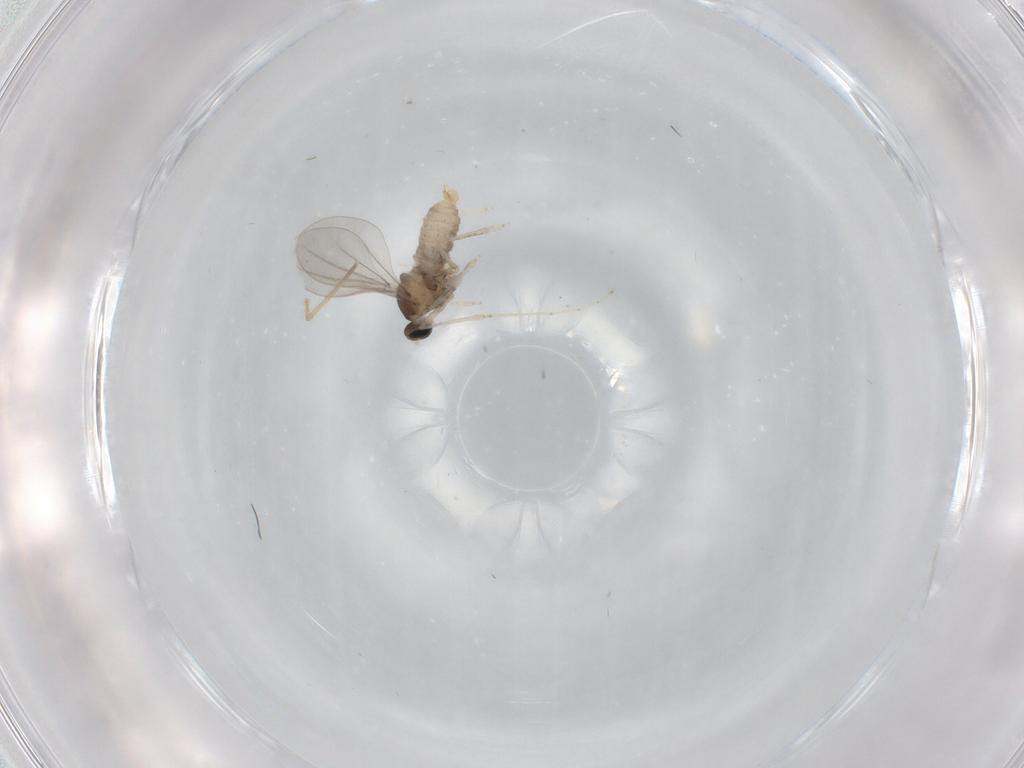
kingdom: Animalia
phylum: Arthropoda
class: Insecta
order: Diptera
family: Cecidomyiidae
